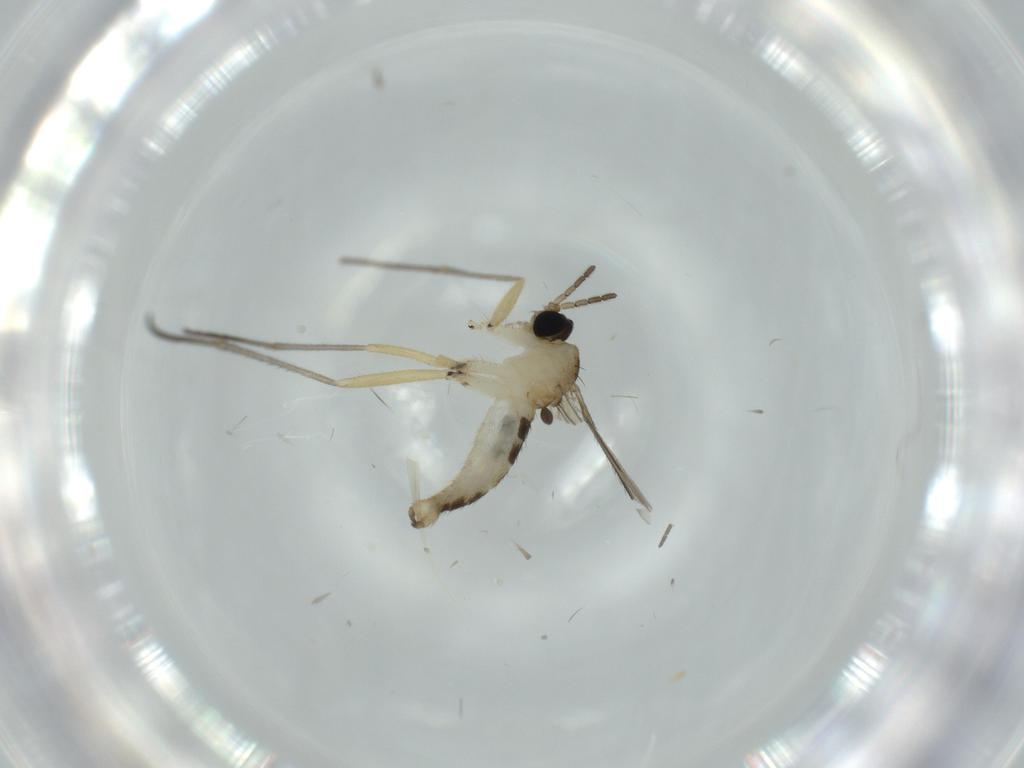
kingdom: Animalia
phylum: Arthropoda
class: Insecta
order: Diptera
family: Sciaridae
